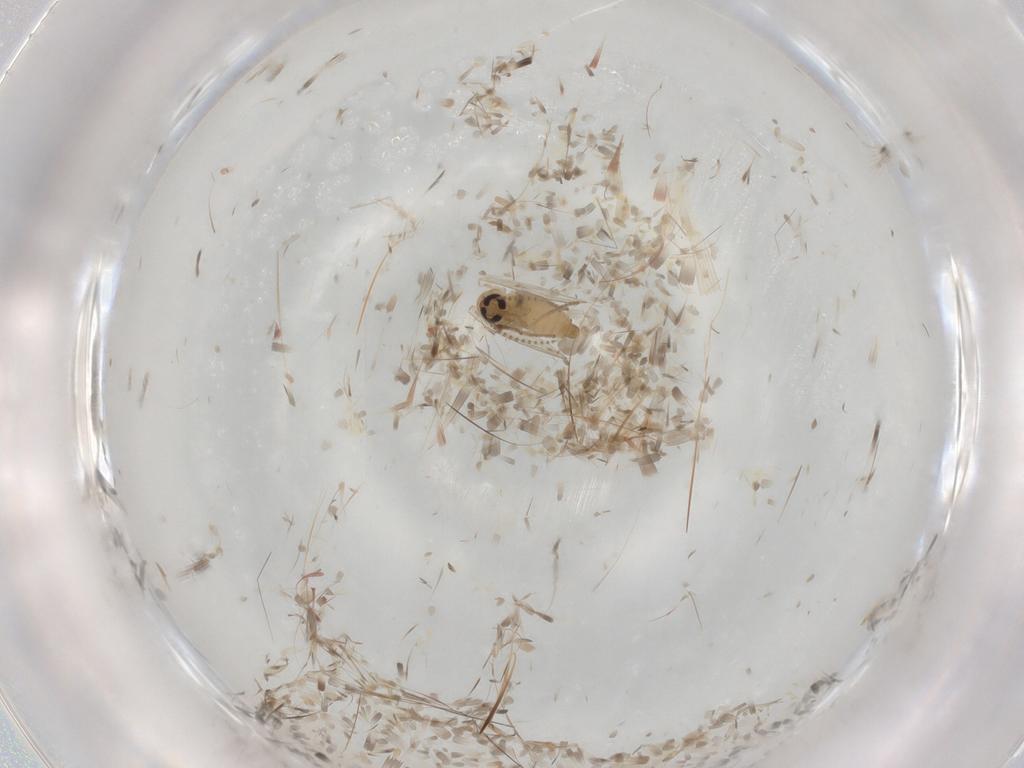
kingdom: Animalia
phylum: Arthropoda
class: Insecta
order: Diptera
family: Psychodidae
